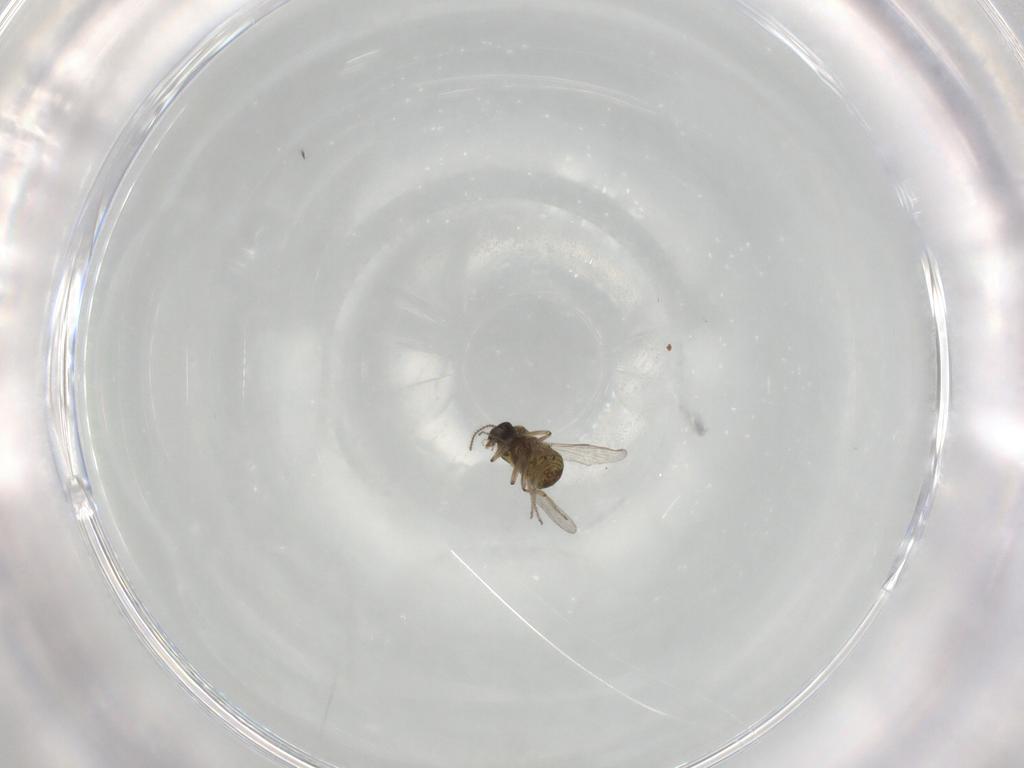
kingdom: Animalia
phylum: Arthropoda
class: Insecta
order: Diptera
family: Ceratopogonidae
